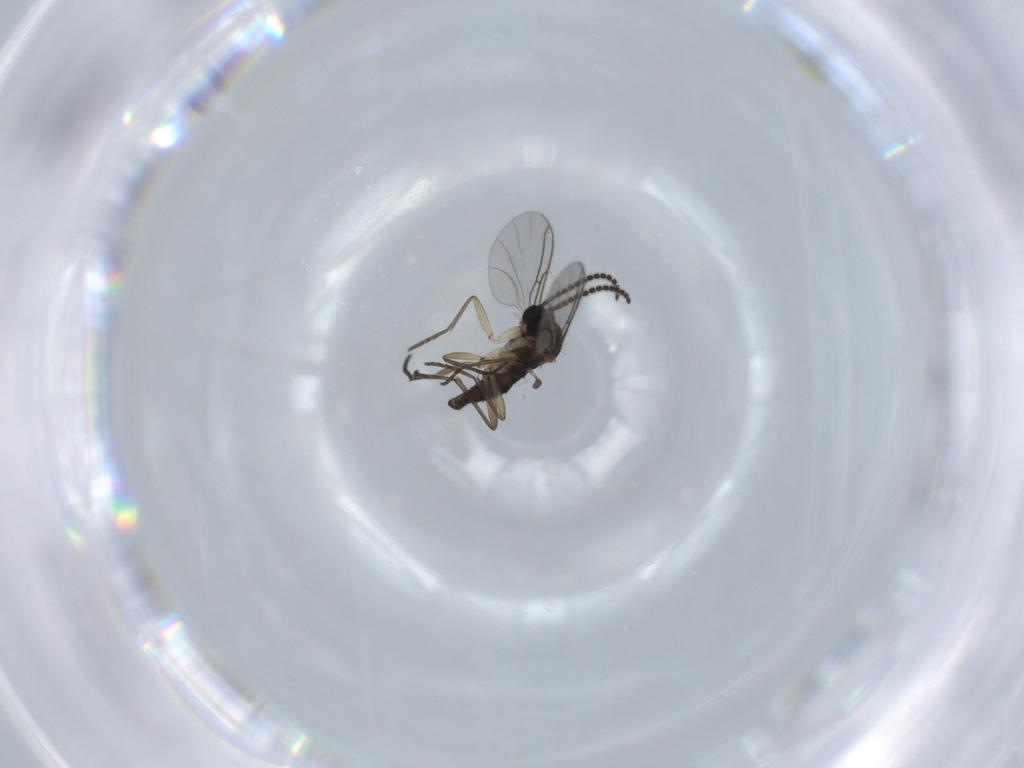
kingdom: Animalia
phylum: Arthropoda
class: Insecta
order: Diptera
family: Sciaridae
